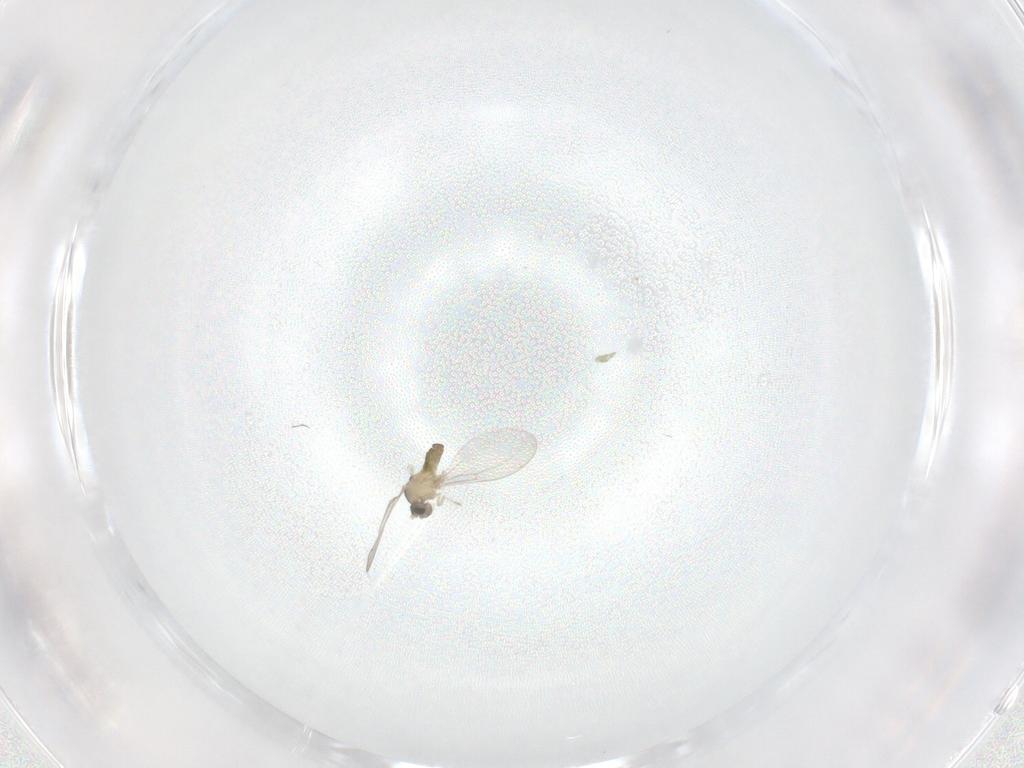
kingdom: Animalia
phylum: Arthropoda
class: Insecta
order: Diptera
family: Cecidomyiidae
